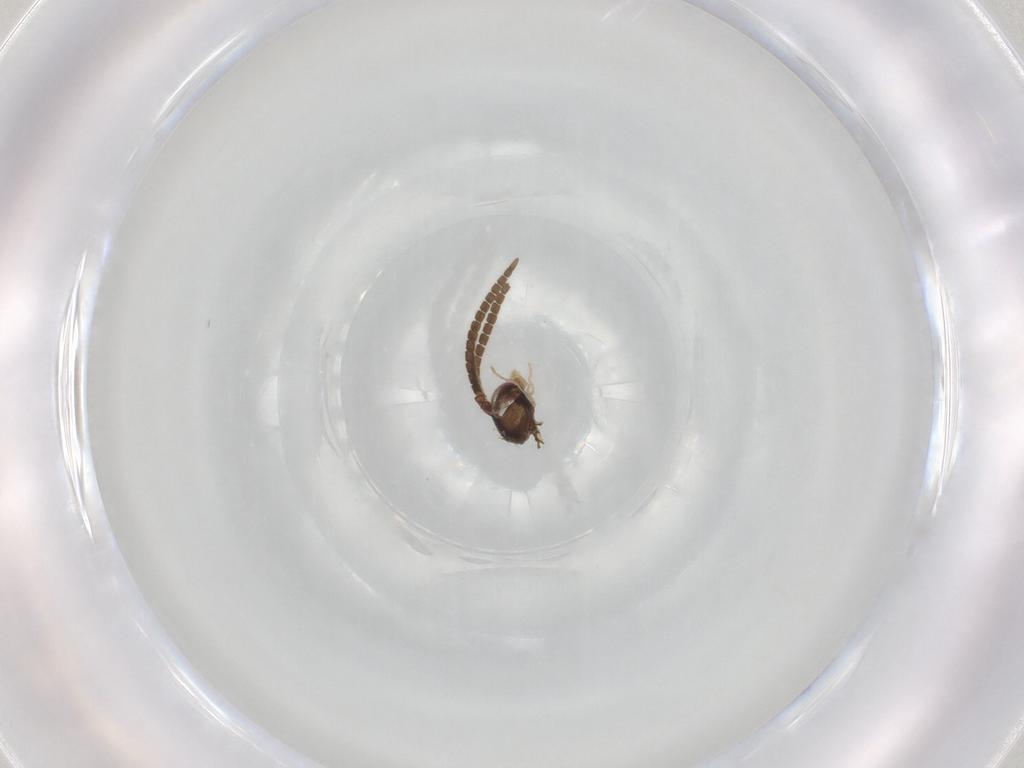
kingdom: Animalia
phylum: Arthropoda
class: Insecta
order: Diptera
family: Mycetophilidae
